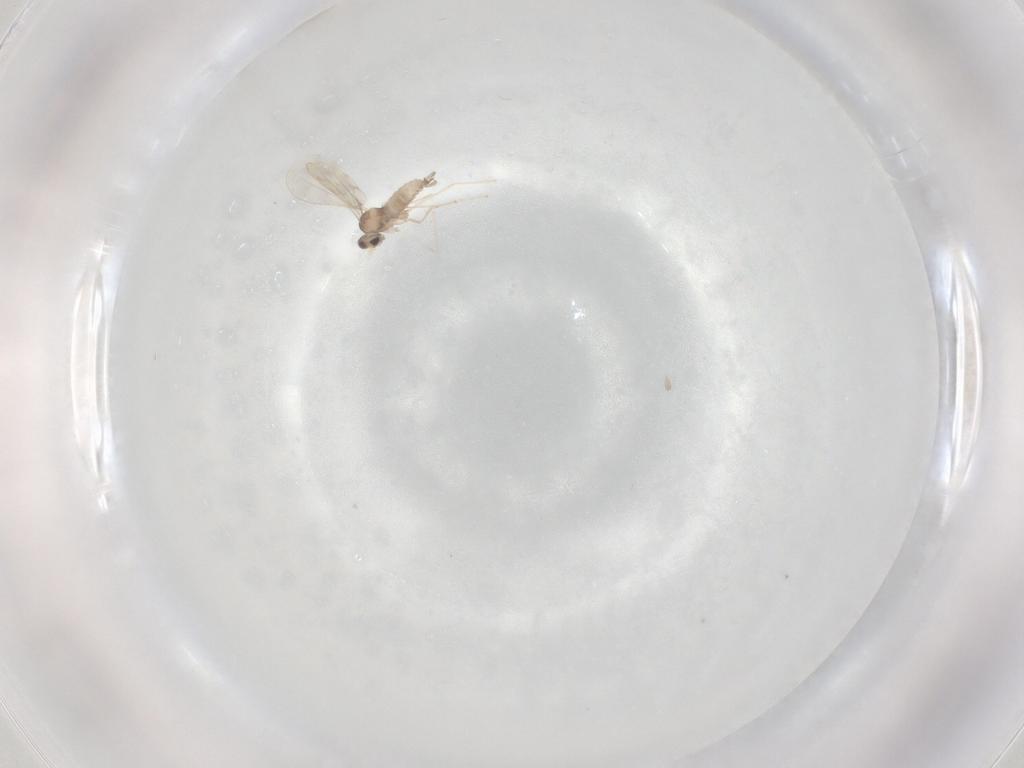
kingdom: Animalia
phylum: Arthropoda
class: Insecta
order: Diptera
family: Cecidomyiidae
